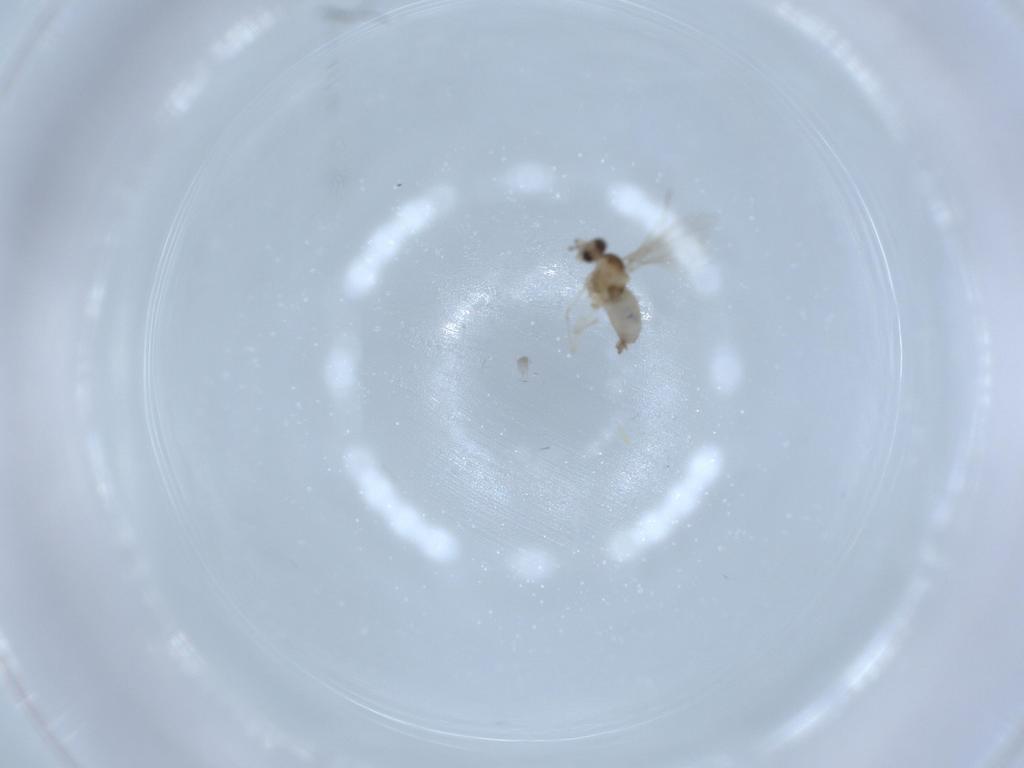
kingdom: Animalia
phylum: Arthropoda
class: Insecta
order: Diptera
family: Cecidomyiidae
